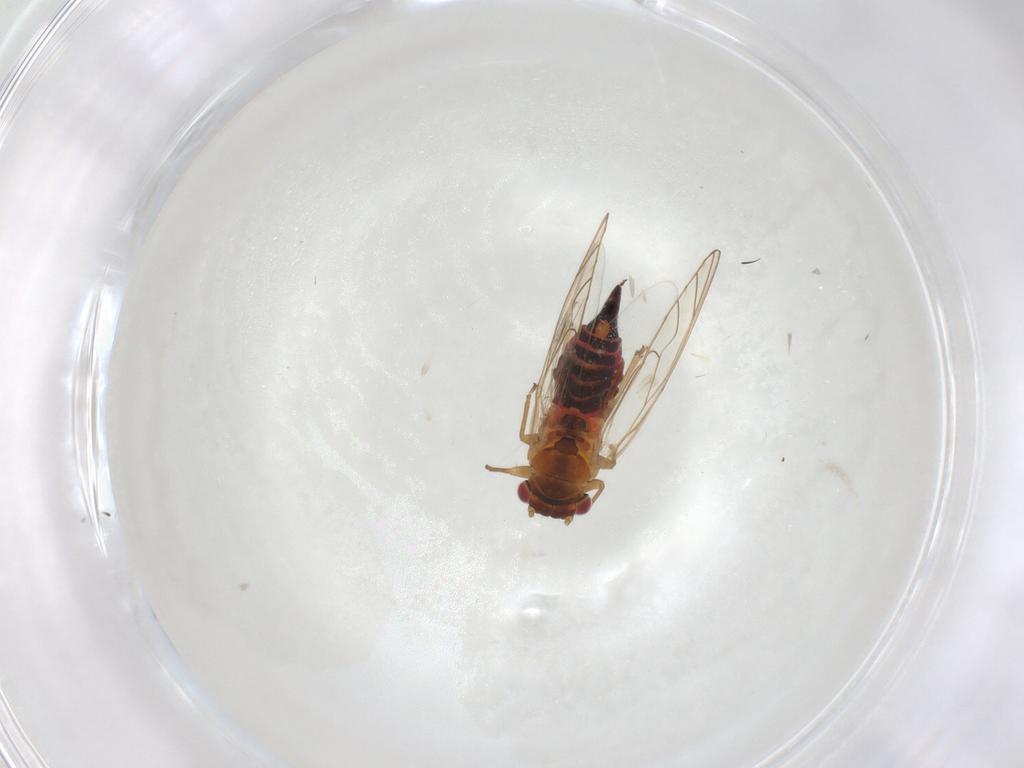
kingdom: Animalia
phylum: Arthropoda
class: Insecta
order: Hemiptera
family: Psyllidae
